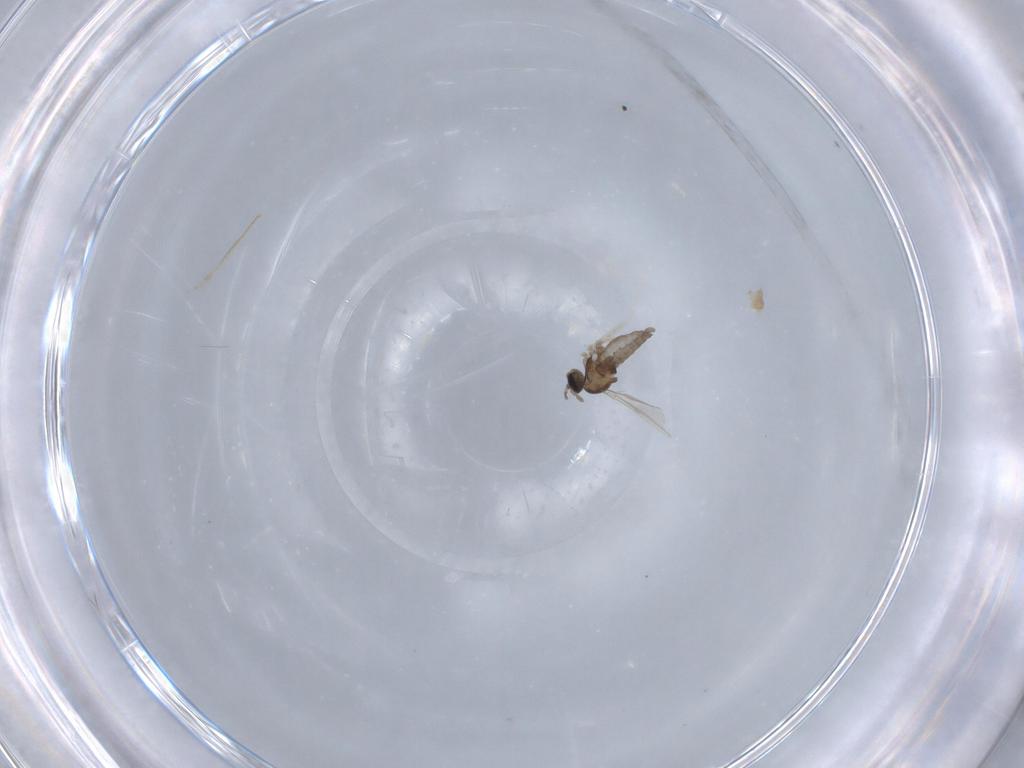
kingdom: Animalia
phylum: Arthropoda
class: Insecta
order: Diptera
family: Cecidomyiidae
